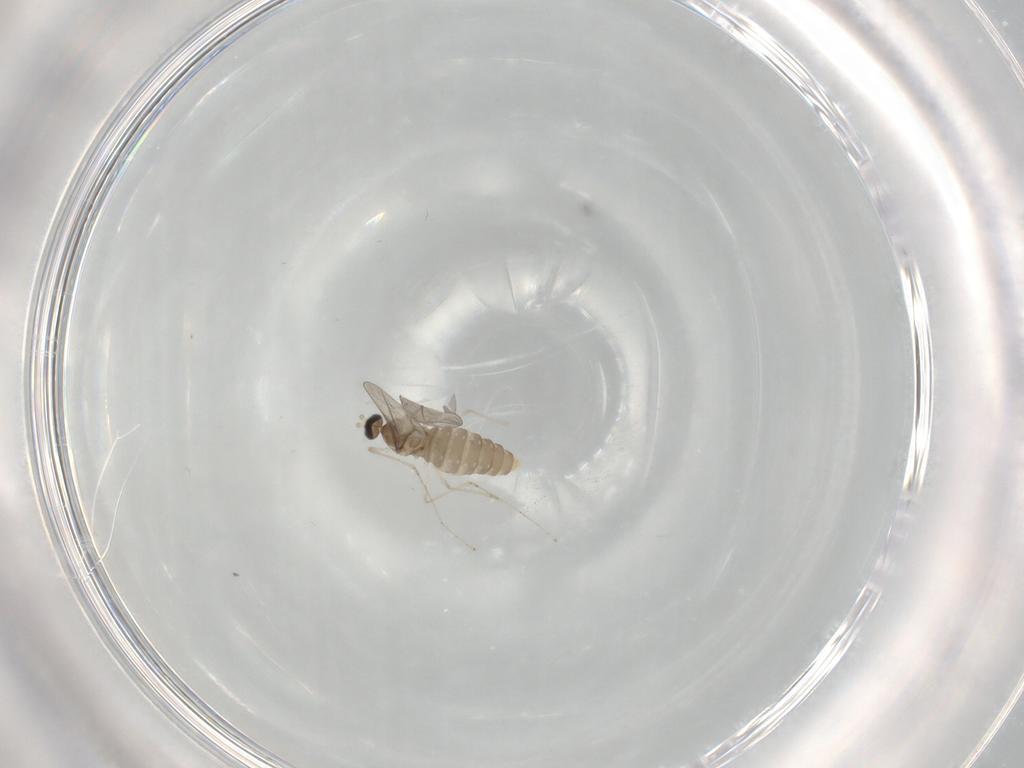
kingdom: Animalia
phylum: Arthropoda
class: Insecta
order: Diptera
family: Cecidomyiidae
